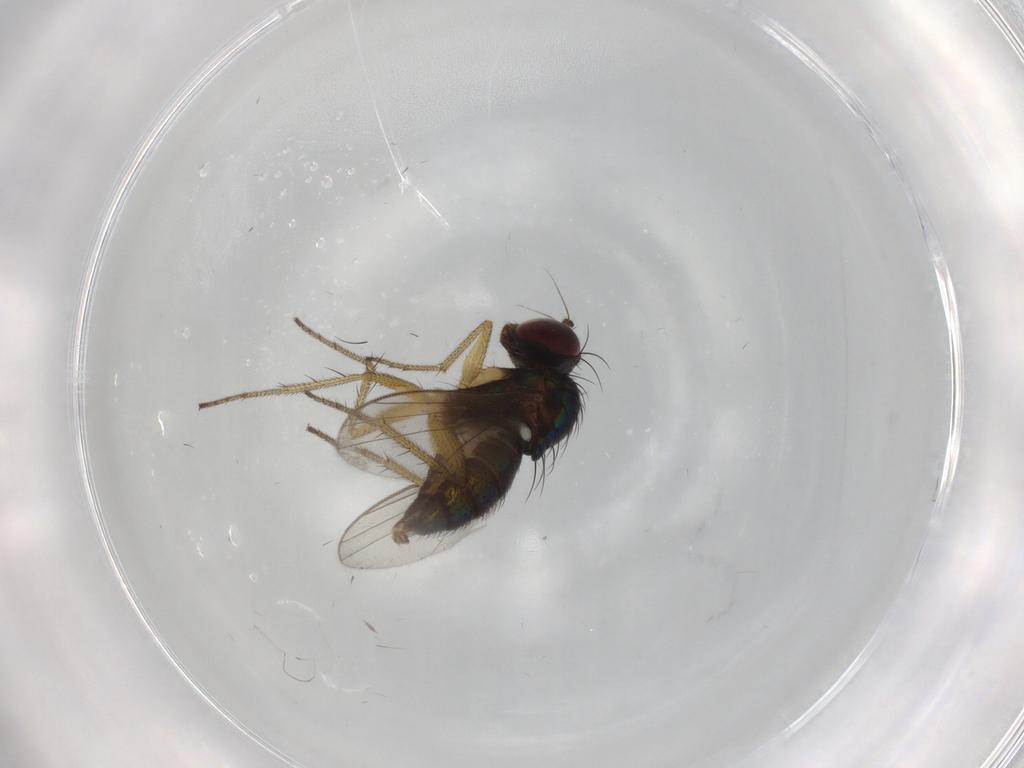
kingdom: Animalia
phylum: Arthropoda
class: Insecta
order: Diptera
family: Dolichopodidae
